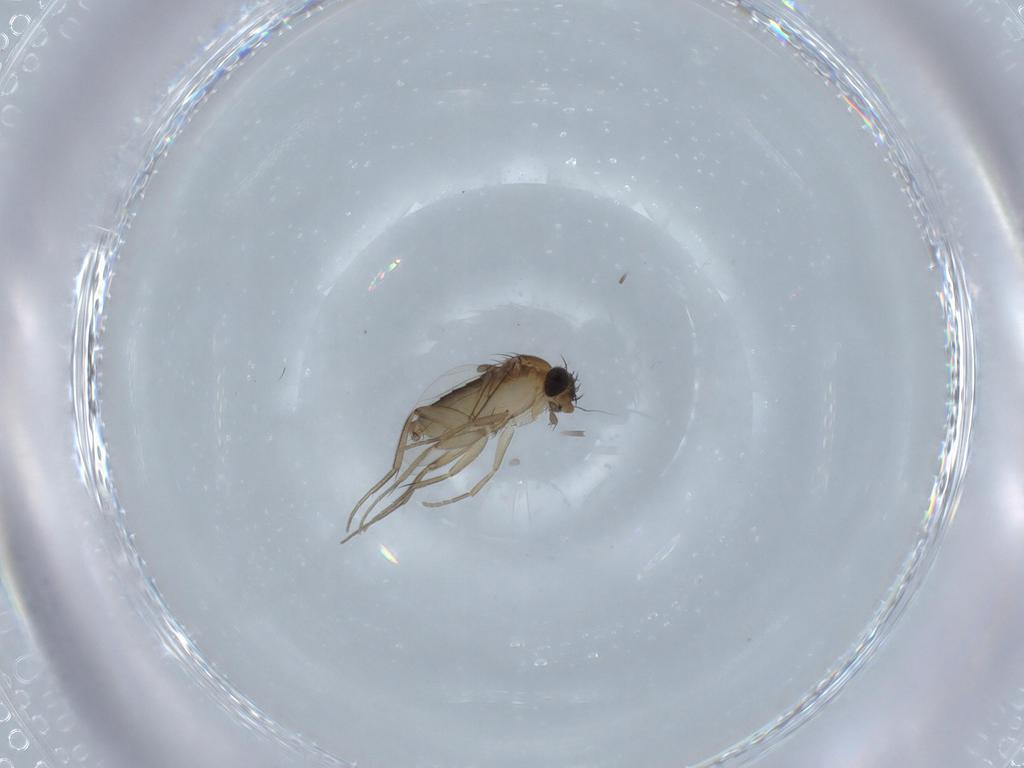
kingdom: Animalia
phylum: Arthropoda
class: Insecta
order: Diptera
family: Phoridae
